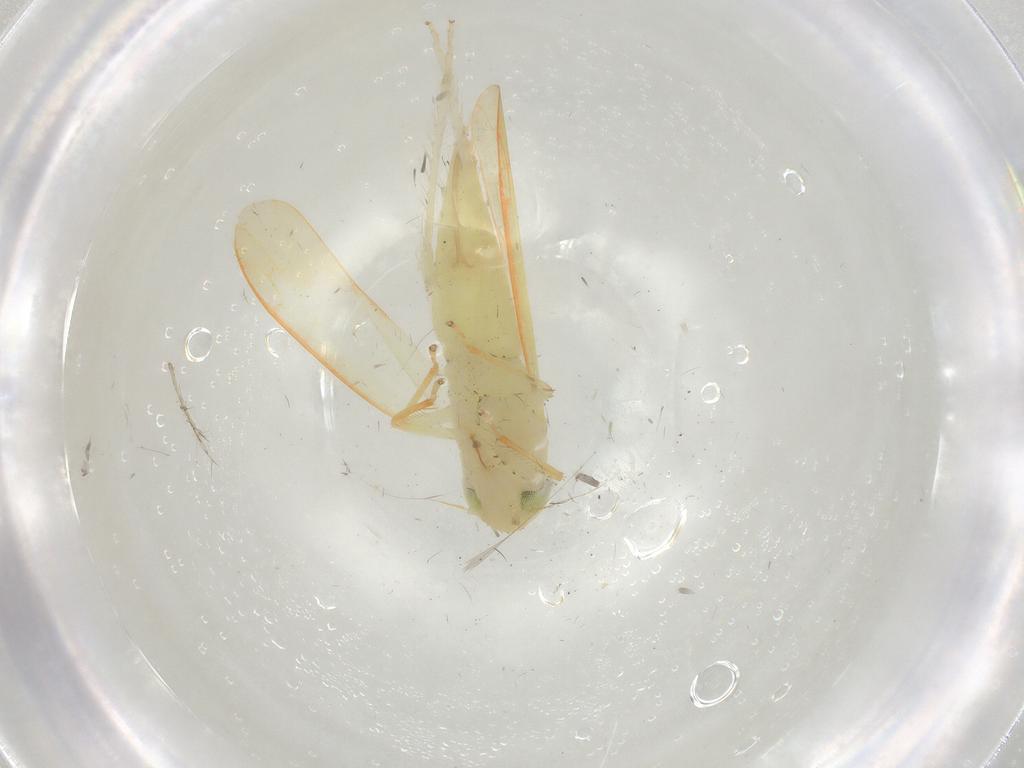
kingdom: Animalia
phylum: Arthropoda
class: Insecta
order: Hemiptera
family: Cicadellidae
